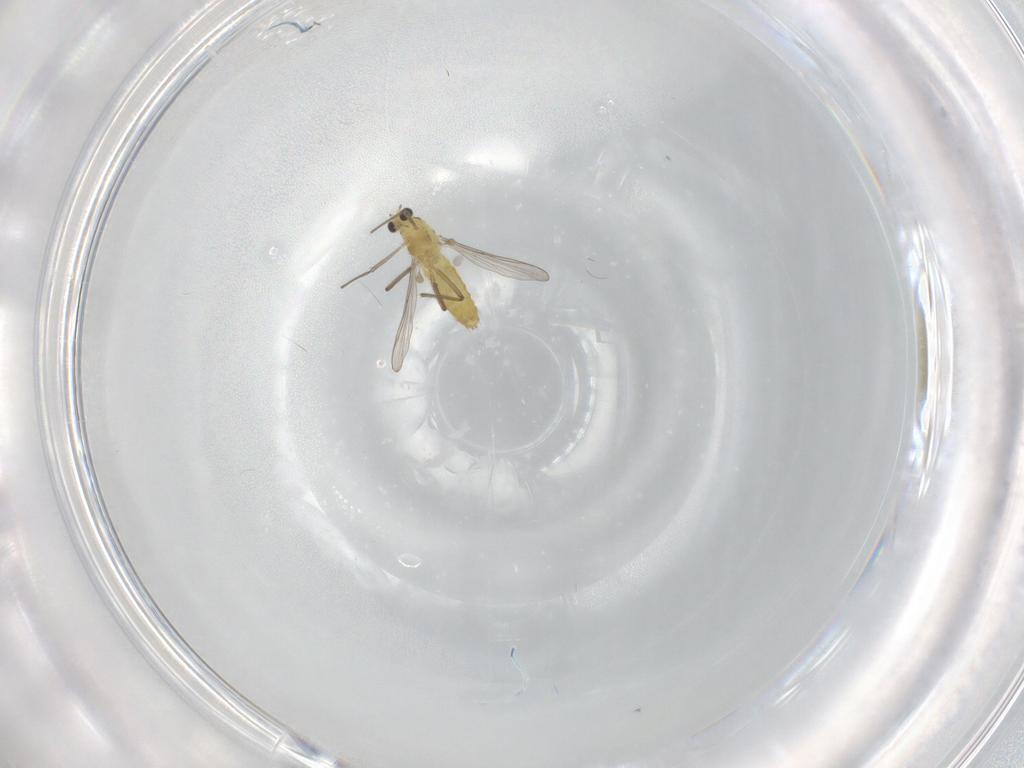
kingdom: Animalia
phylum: Arthropoda
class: Insecta
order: Diptera
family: Chironomidae
